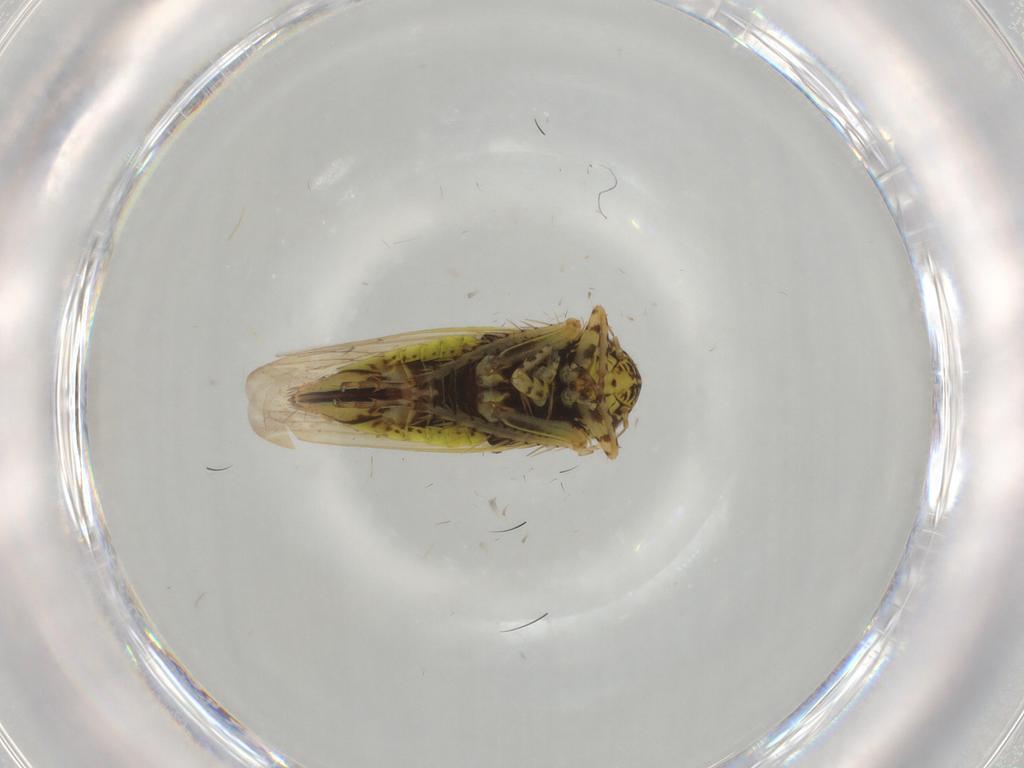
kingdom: Animalia
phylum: Arthropoda
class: Insecta
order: Hemiptera
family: Cicadellidae
